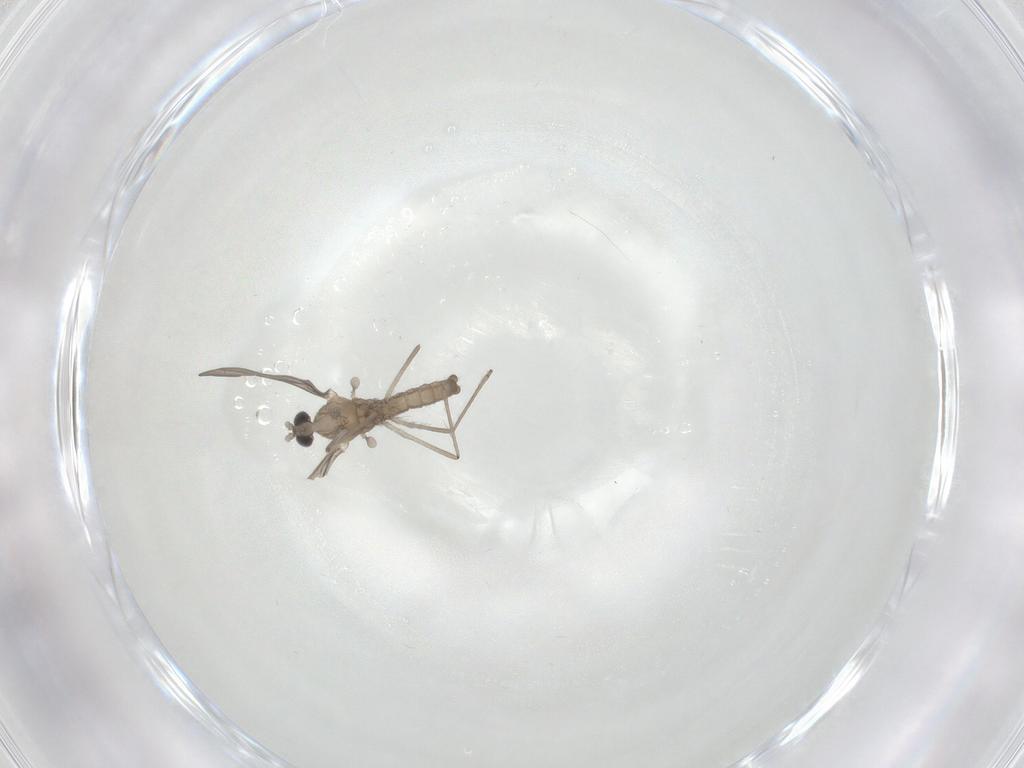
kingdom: Animalia
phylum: Arthropoda
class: Insecta
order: Diptera
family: Cecidomyiidae
